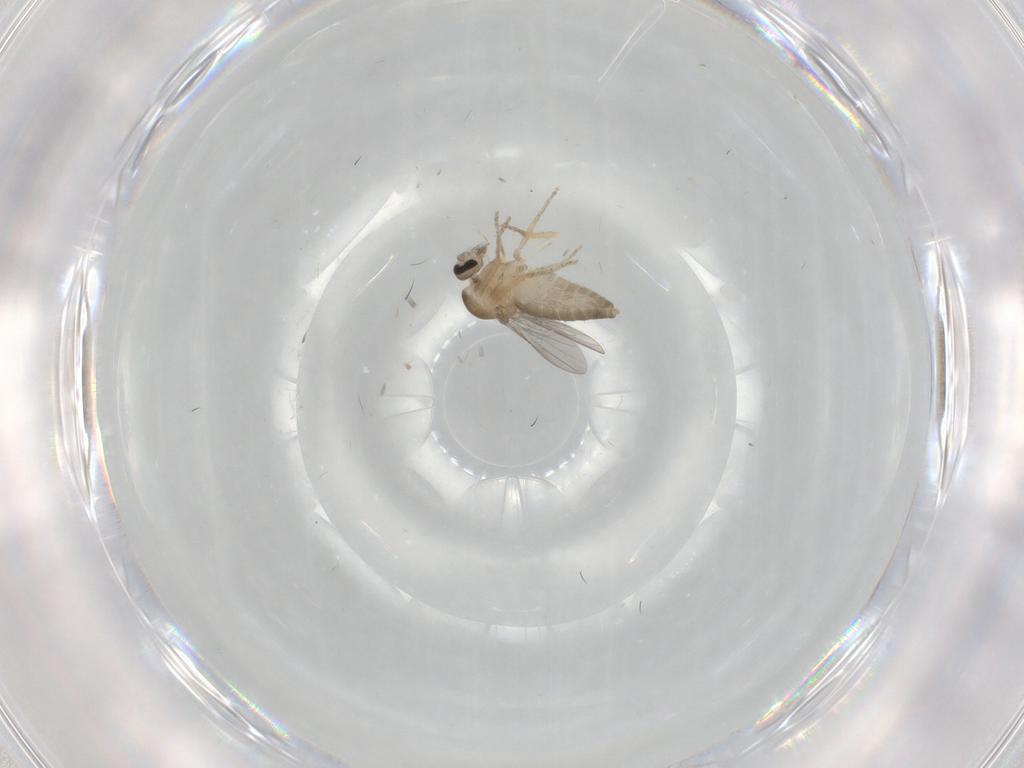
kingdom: Animalia
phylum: Arthropoda
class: Insecta
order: Diptera
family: Ceratopogonidae
